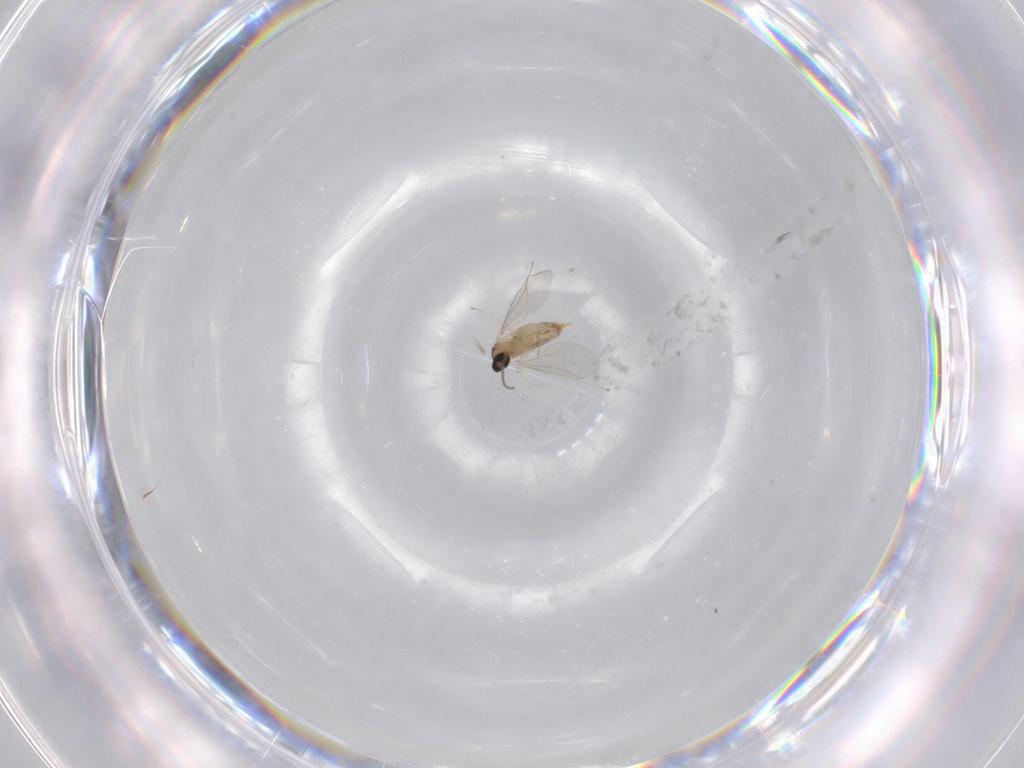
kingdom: Animalia
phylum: Arthropoda
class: Insecta
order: Diptera
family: Cecidomyiidae
